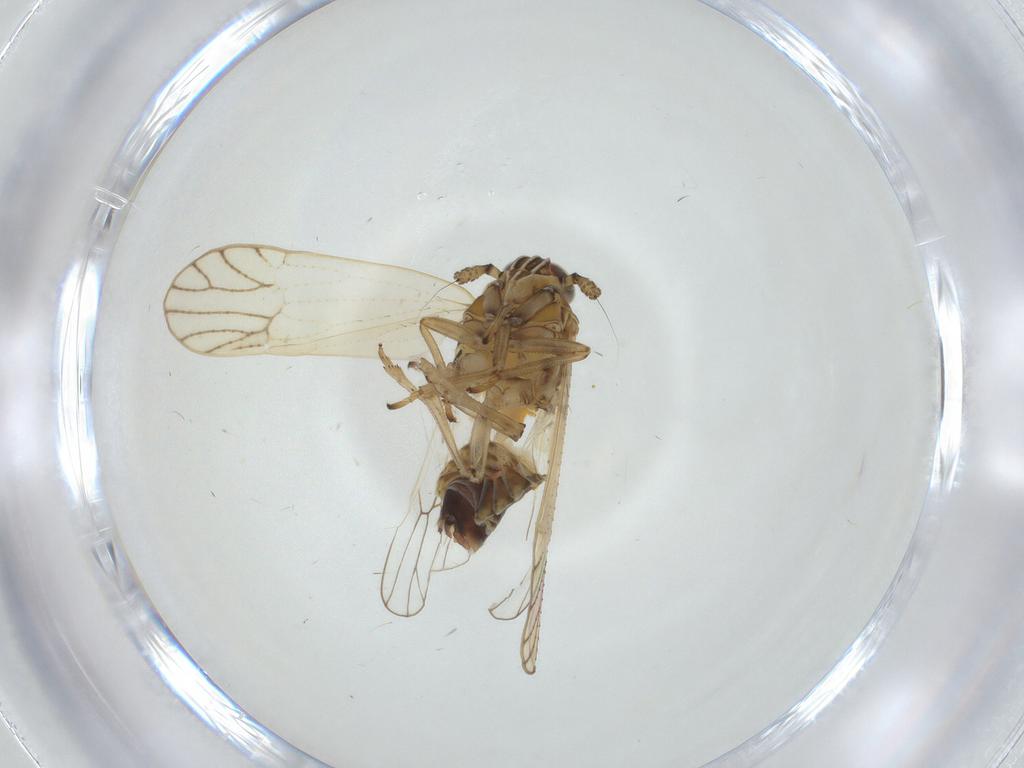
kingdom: Animalia
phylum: Arthropoda
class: Insecta
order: Hemiptera
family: Delphacidae
